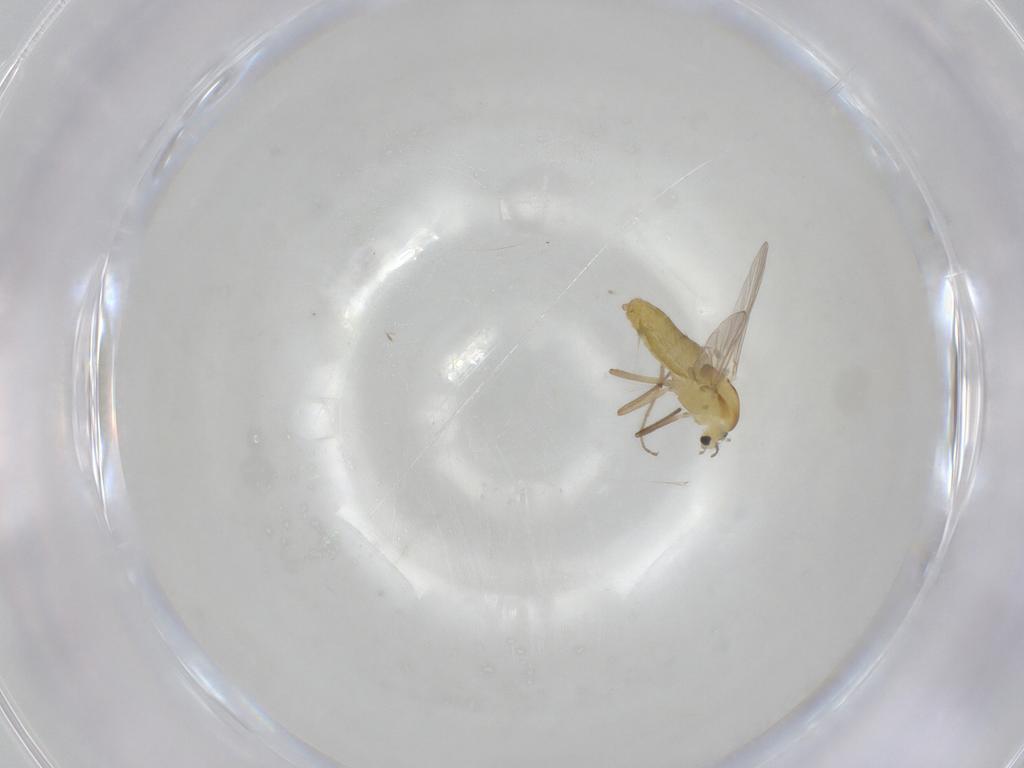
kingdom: Animalia
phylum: Arthropoda
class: Insecta
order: Diptera
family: Chironomidae
